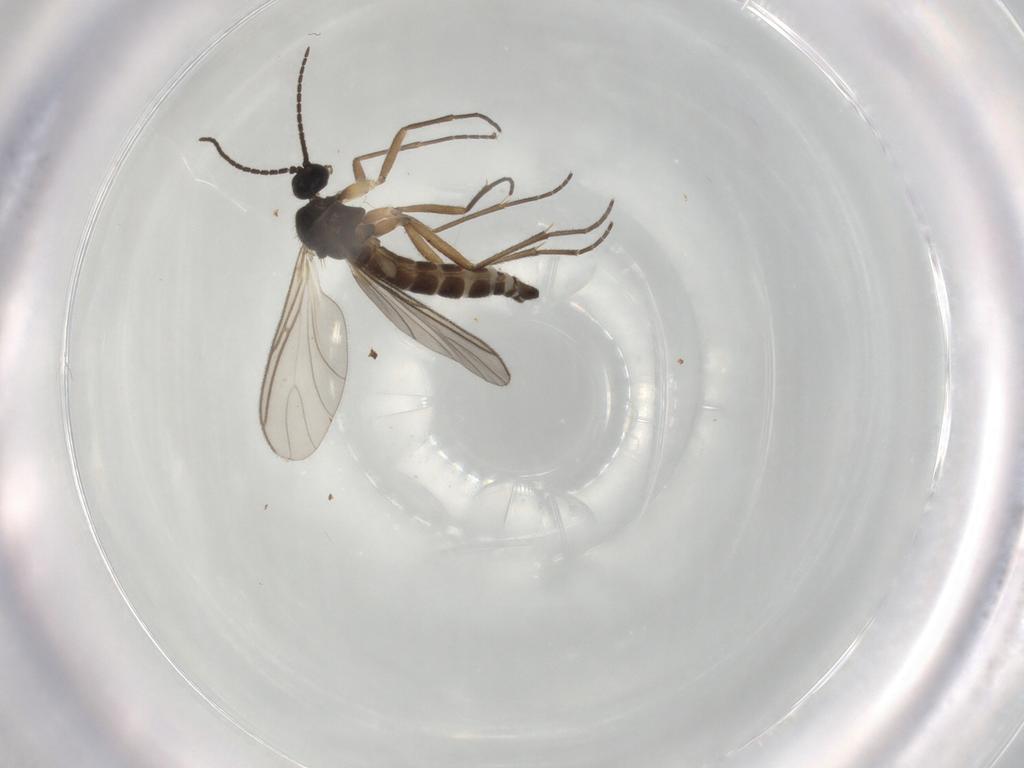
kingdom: Animalia
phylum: Arthropoda
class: Insecta
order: Diptera
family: Sciaridae
